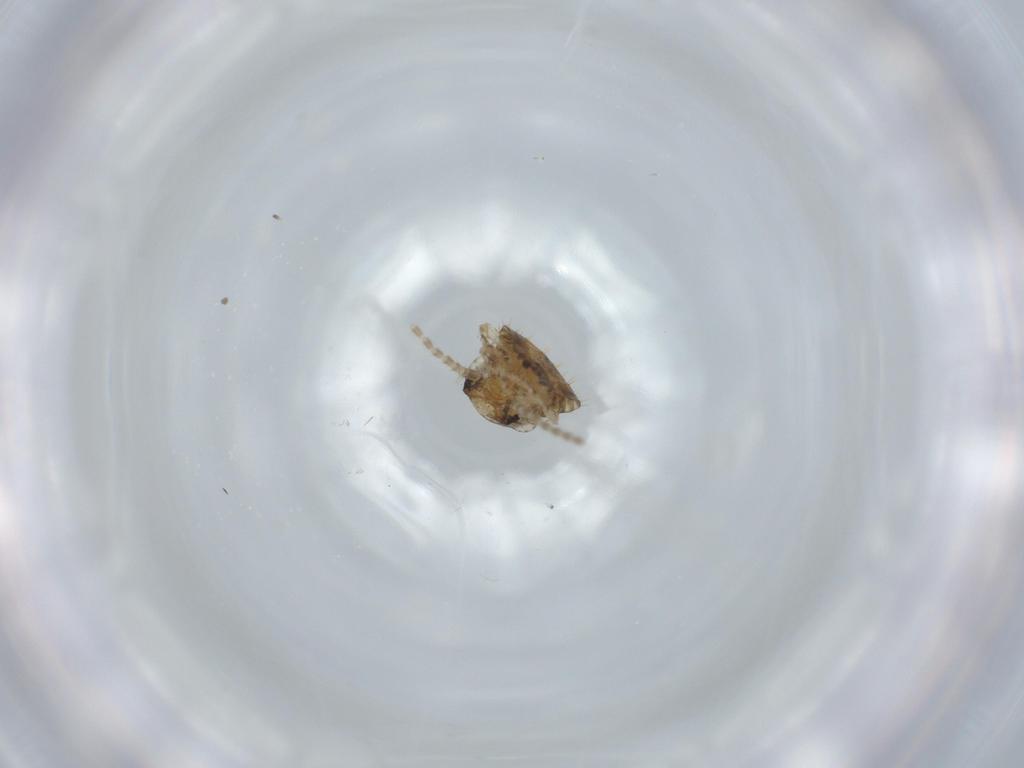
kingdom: Animalia
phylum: Arthropoda
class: Insecta
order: Blattodea
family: Ectobiidae
